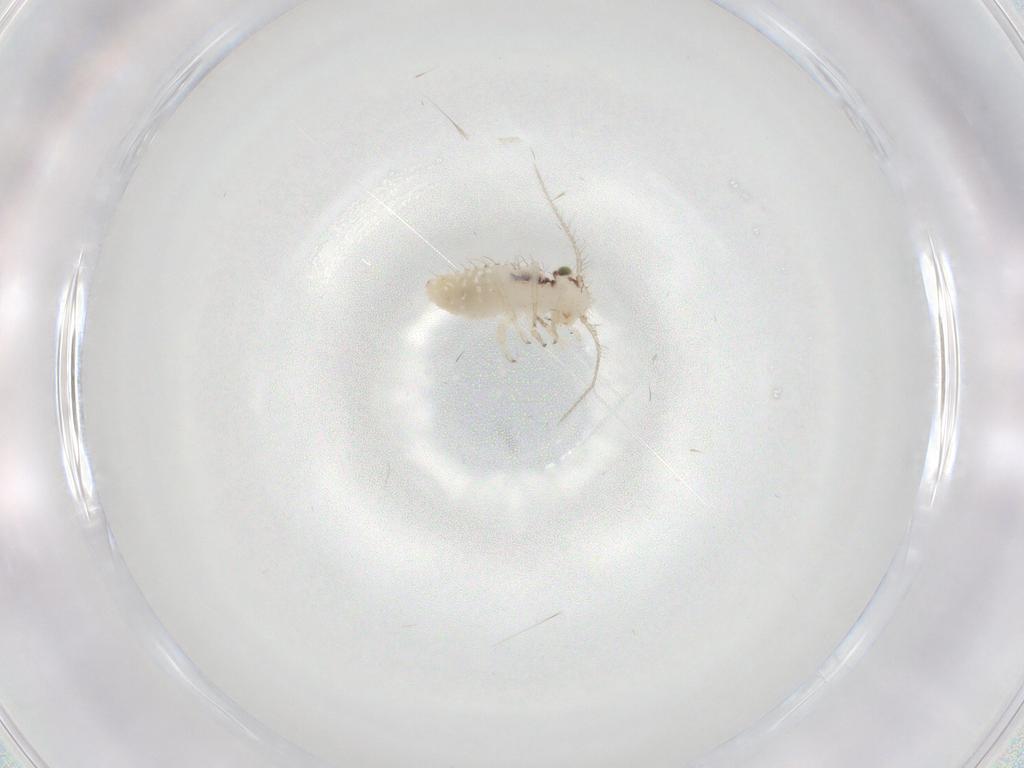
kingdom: Animalia
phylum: Arthropoda
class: Insecta
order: Psocodea
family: Pseudocaeciliidae
